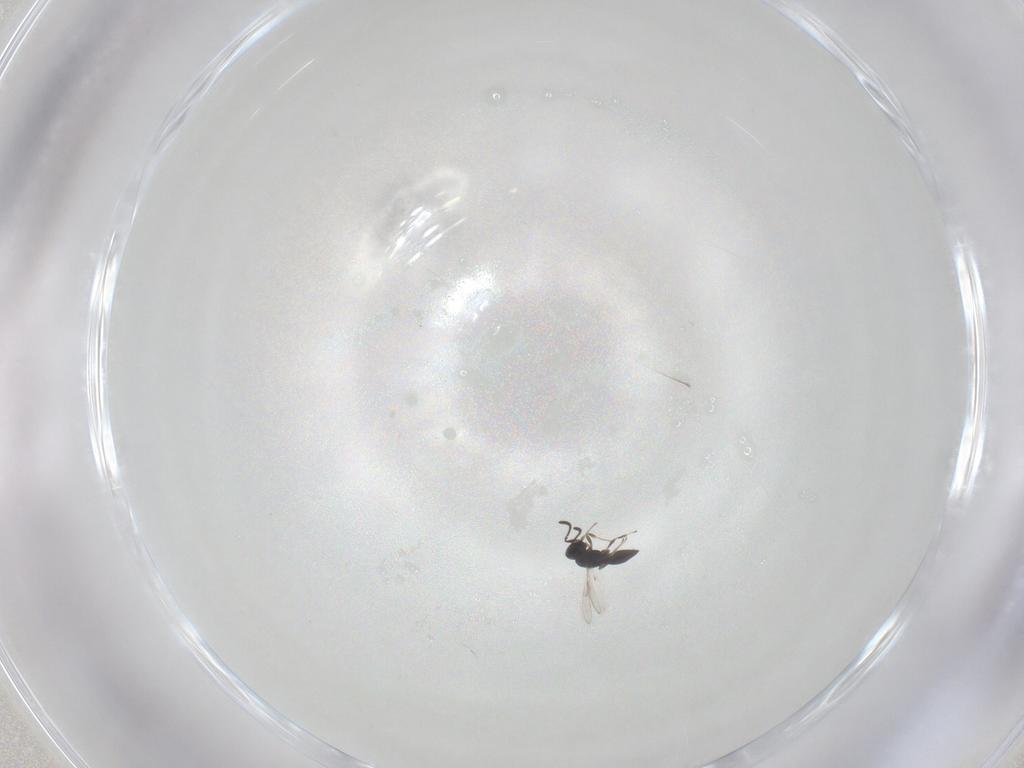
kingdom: Animalia
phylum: Arthropoda
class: Insecta
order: Hymenoptera
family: Scelionidae
